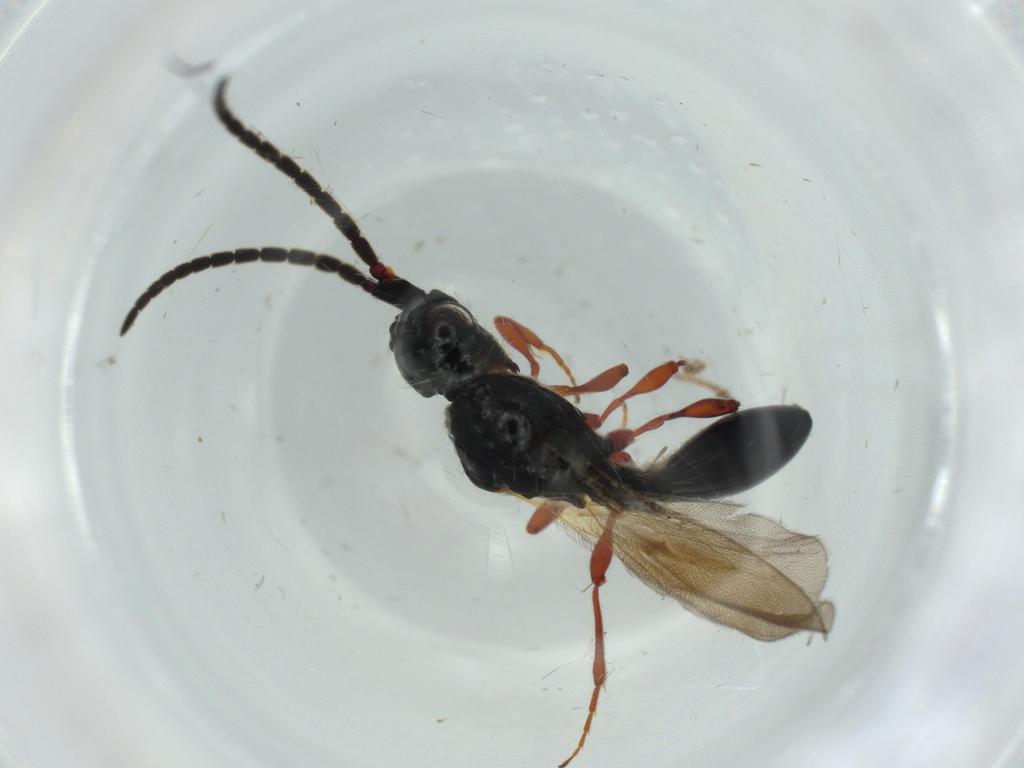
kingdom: Animalia
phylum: Arthropoda
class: Insecta
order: Hymenoptera
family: Diapriidae
